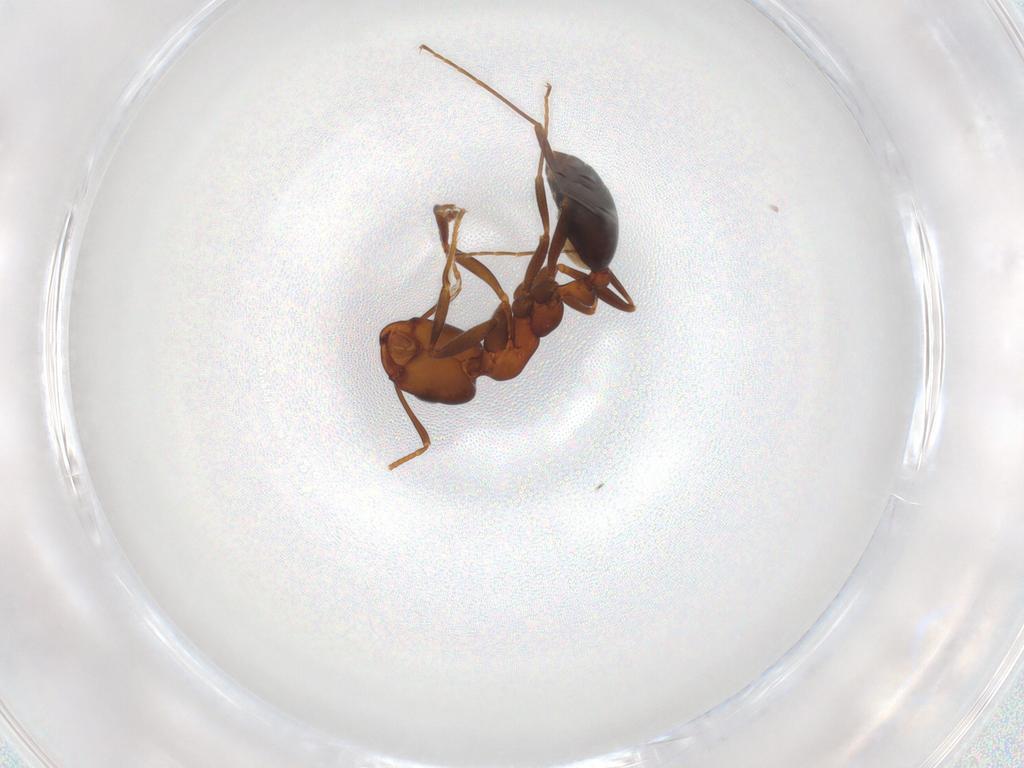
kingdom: Animalia
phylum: Arthropoda
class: Insecta
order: Hymenoptera
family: Formicidae
